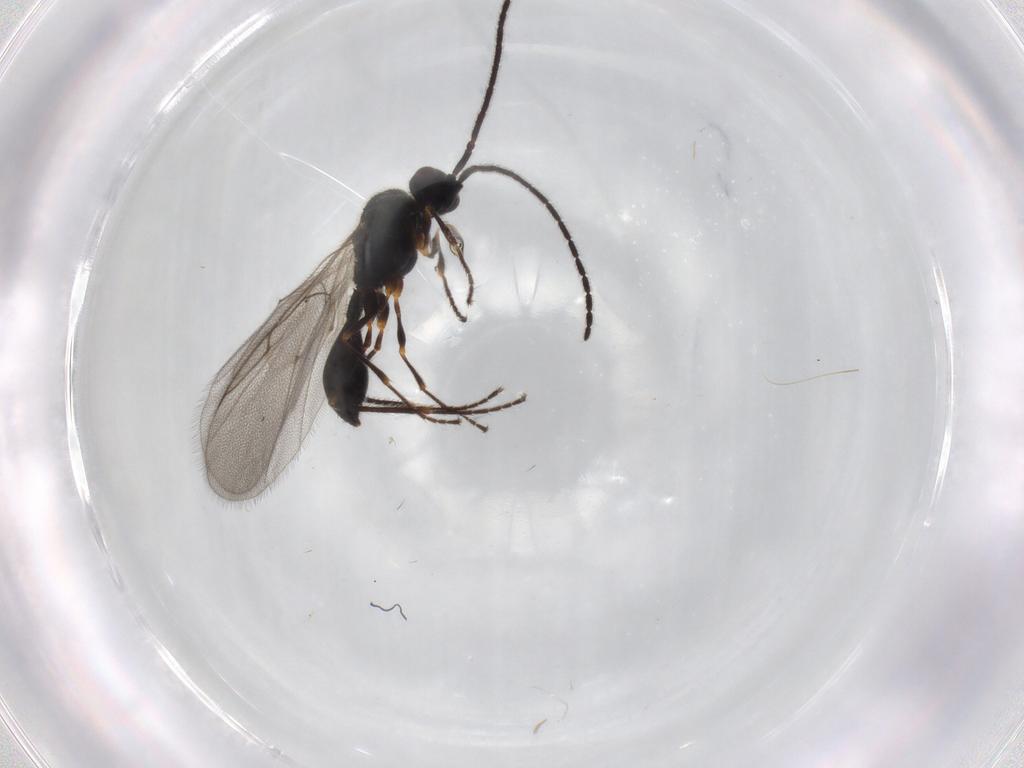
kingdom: Animalia
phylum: Arthropoda
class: Insecta
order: Hymenoptera
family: Diapriidae
